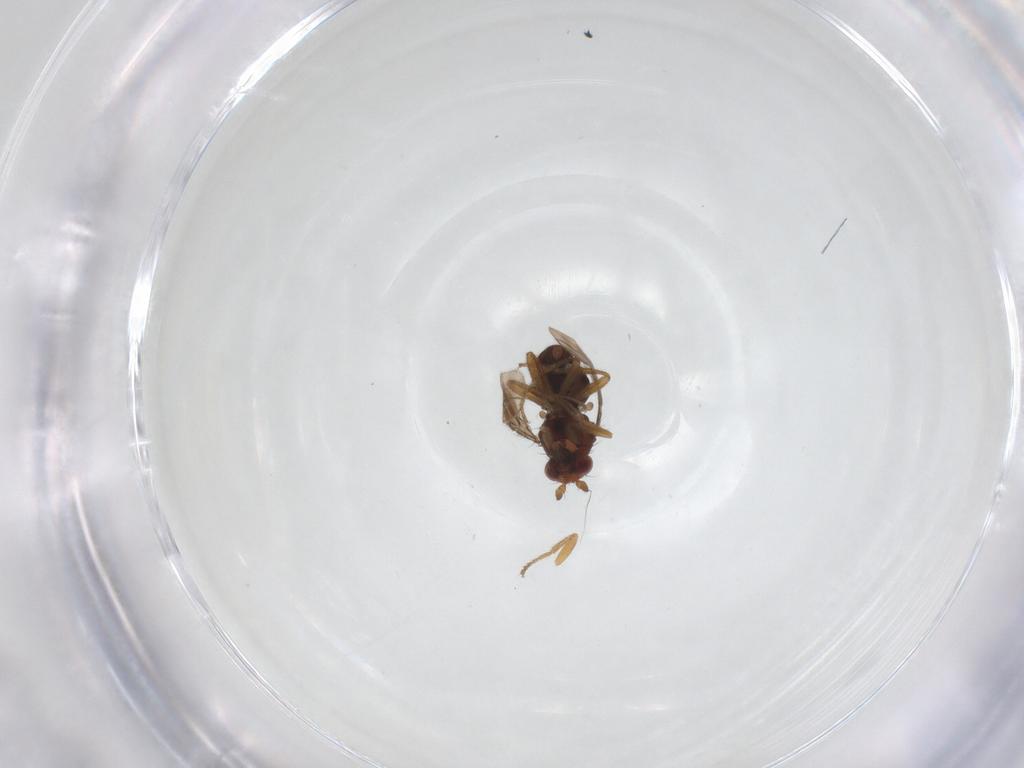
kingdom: Animalia
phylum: Arthropoda
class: Insecta
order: Diptera
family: Sphaeroceridae
